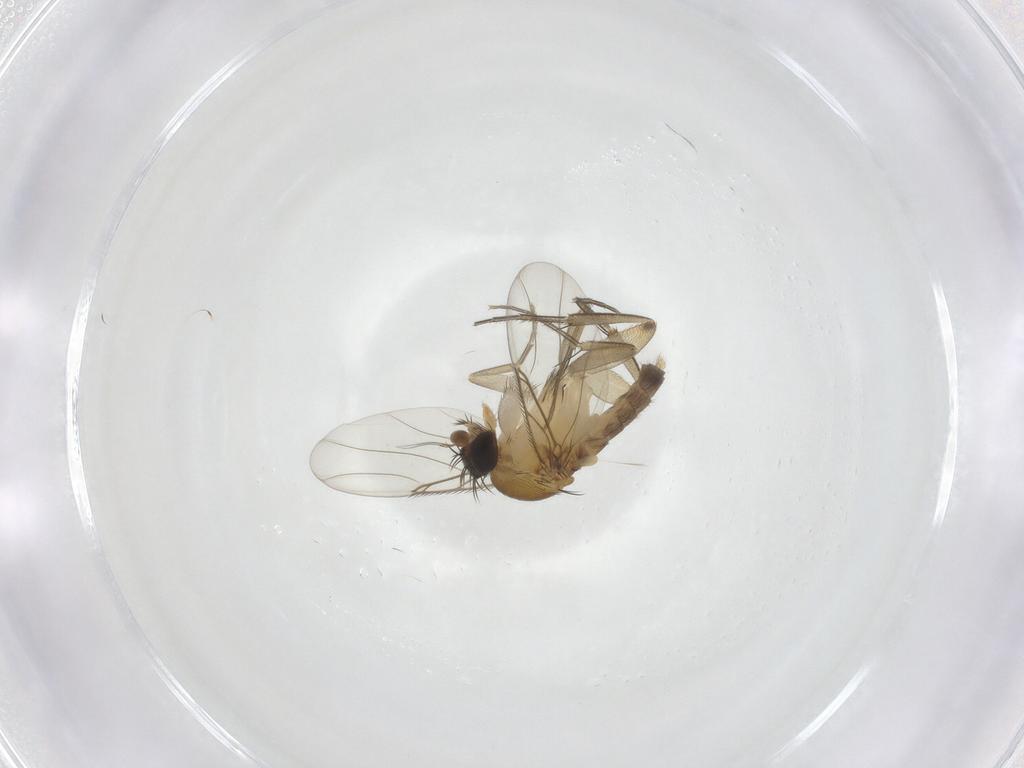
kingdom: Animalia
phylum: Arthropoda
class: Insecta
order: Diptera
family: Phoridae
